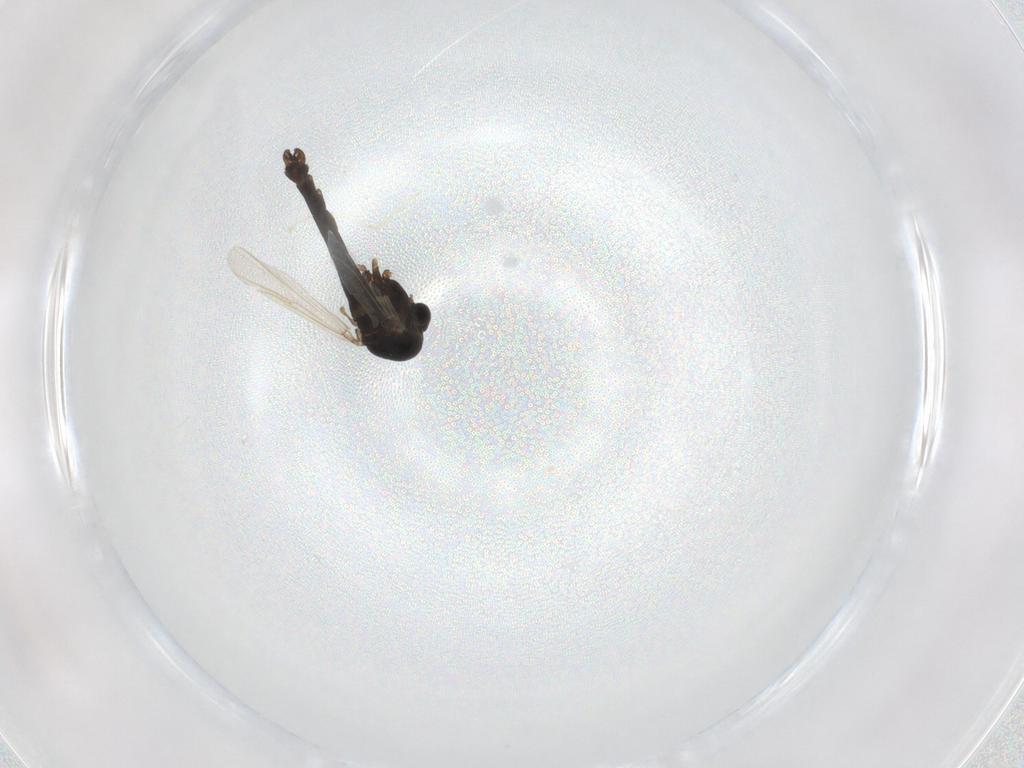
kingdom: Animalia
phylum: Arthropoda
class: Insecta
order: Diptera
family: Chironomidae
